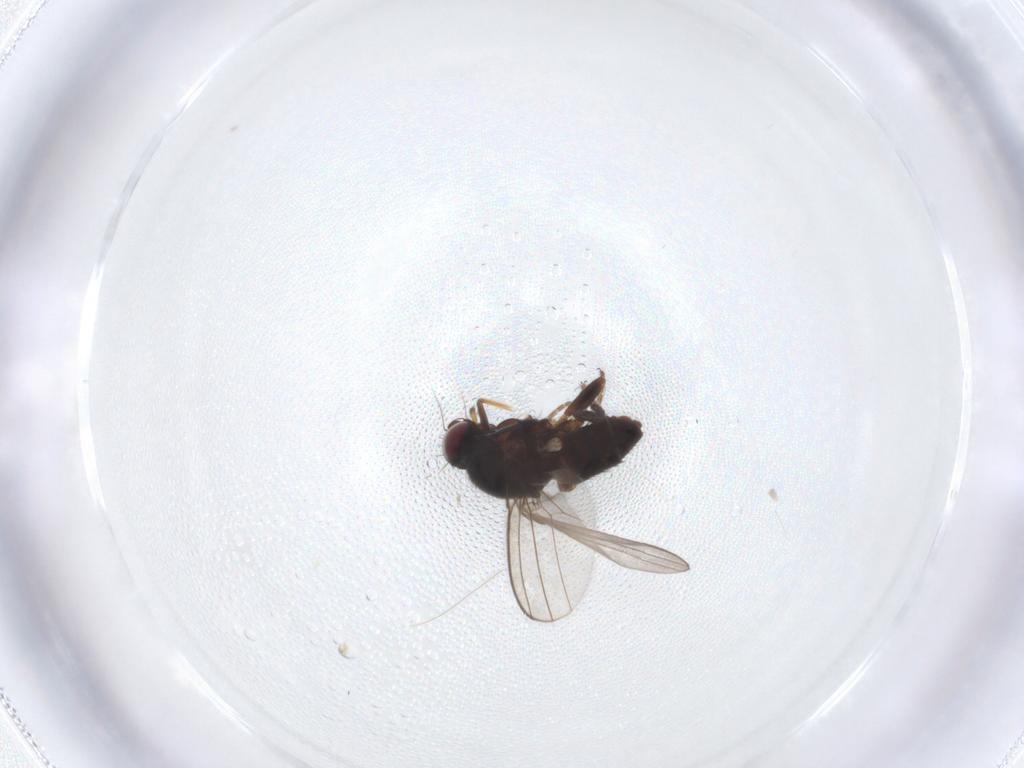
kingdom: Animalia
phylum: Arthropoda
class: Insecta
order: Diptera
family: Milichiidae
